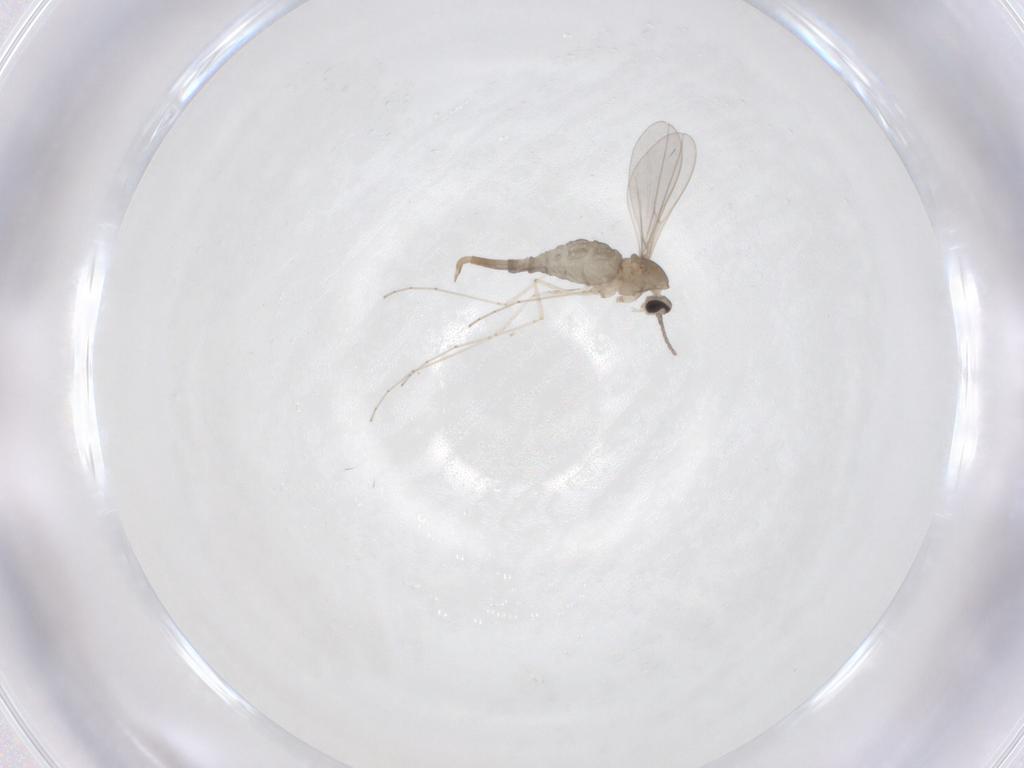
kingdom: Animalia
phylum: Arthropoda
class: Insecta
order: Diptera
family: Cecidomyiidae
